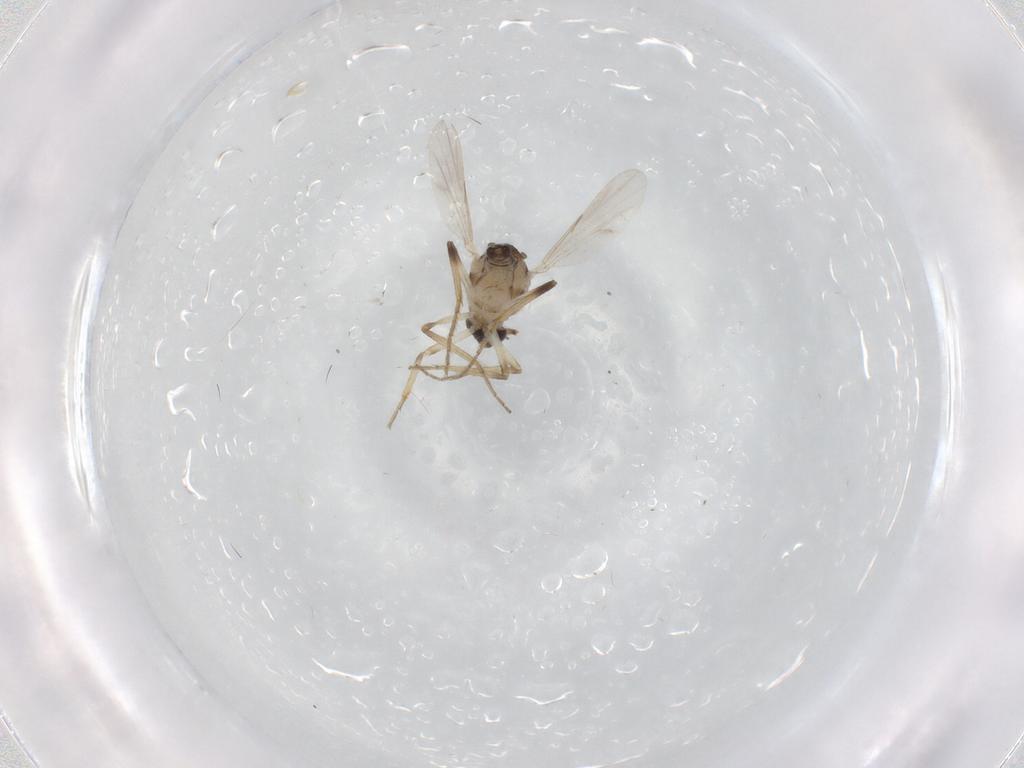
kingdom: Animalia
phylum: Arthropoda
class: Insecta
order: Diptera
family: Ceratopogonidae
